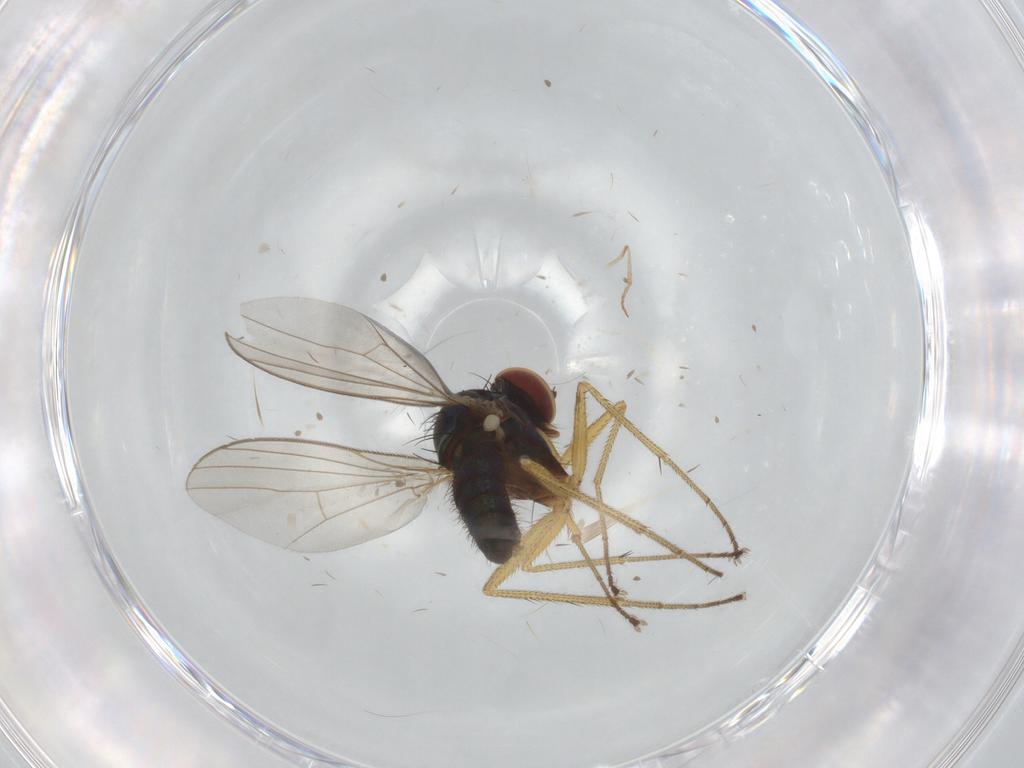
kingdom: Animalia
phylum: Arthropoda
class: Insecta
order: Diptera
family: Dolichopodidae
